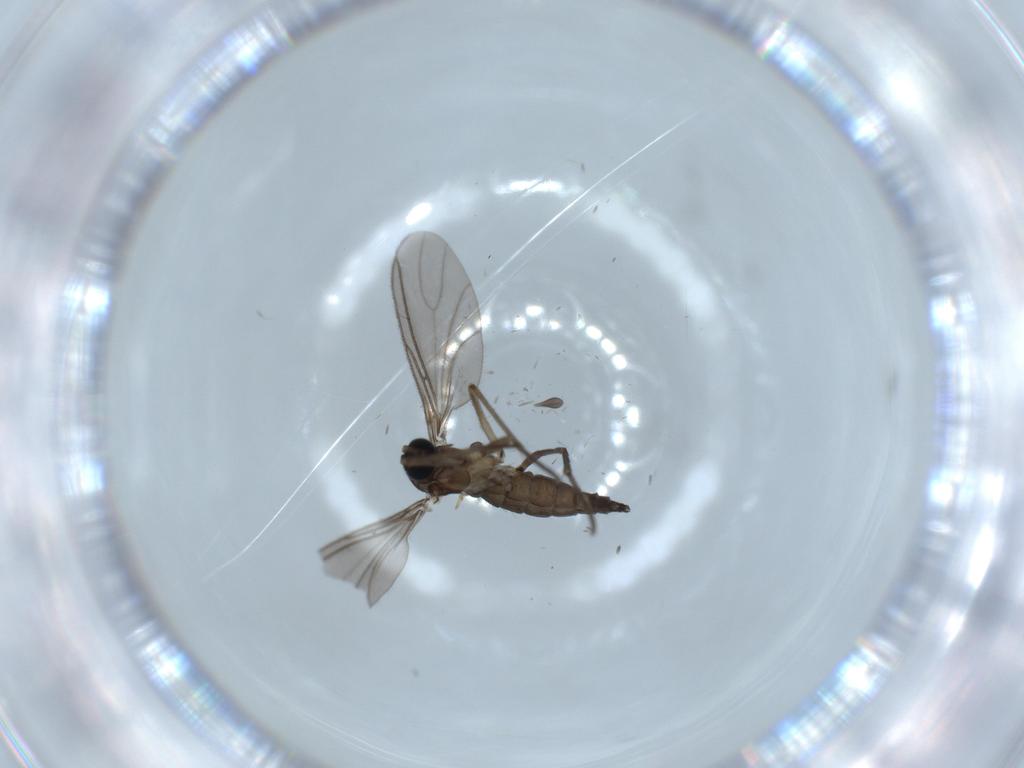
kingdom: Animalia
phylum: Arthropoda
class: Insecta
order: Diptera
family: Sciaridae
